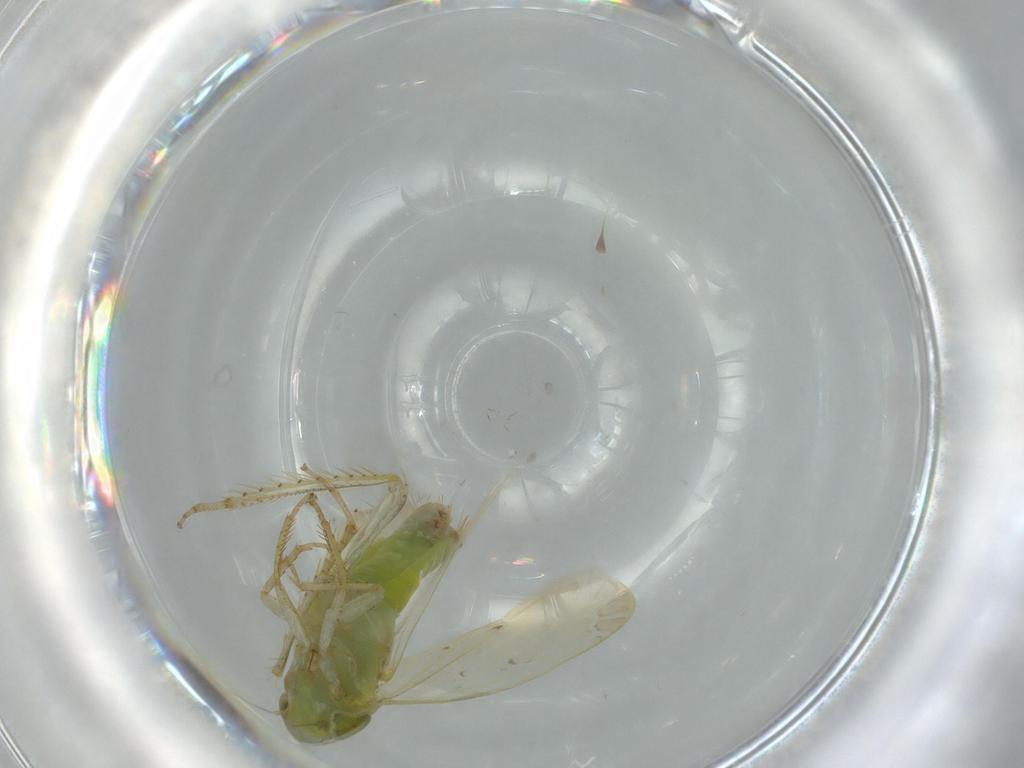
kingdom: Animalia
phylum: Arthropoda
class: Insecta
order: Hemiptera
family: Cicadellidae
